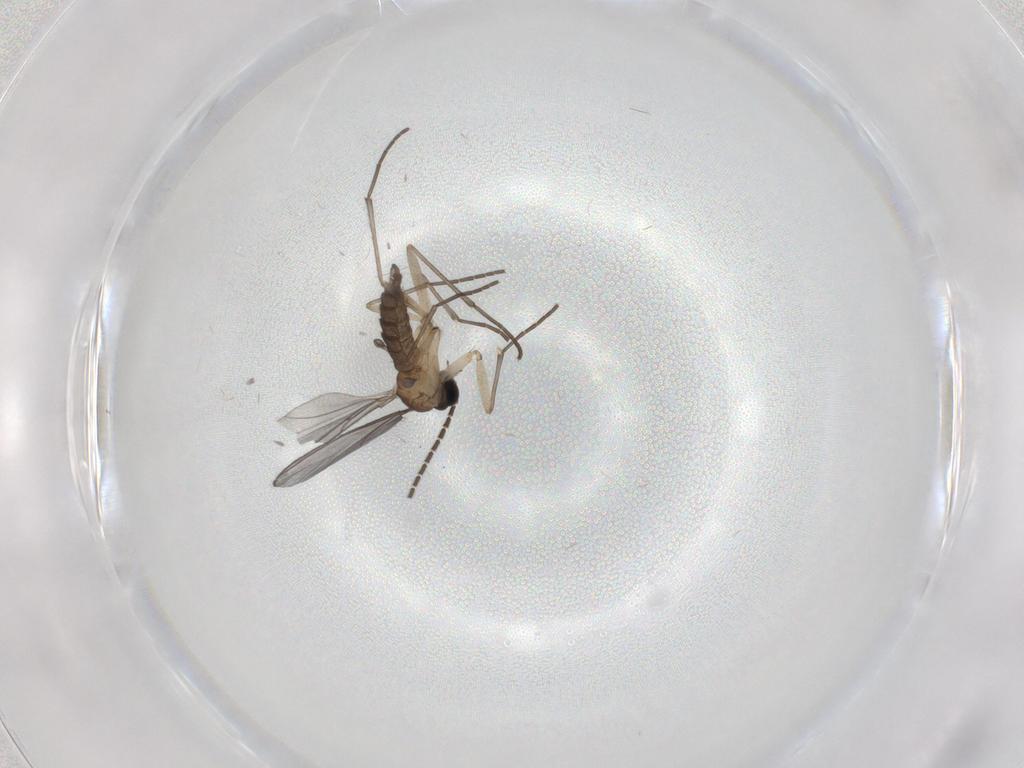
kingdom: Animalia
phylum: Arthropoda
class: Insecta
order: Diptera
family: Sciaridae
